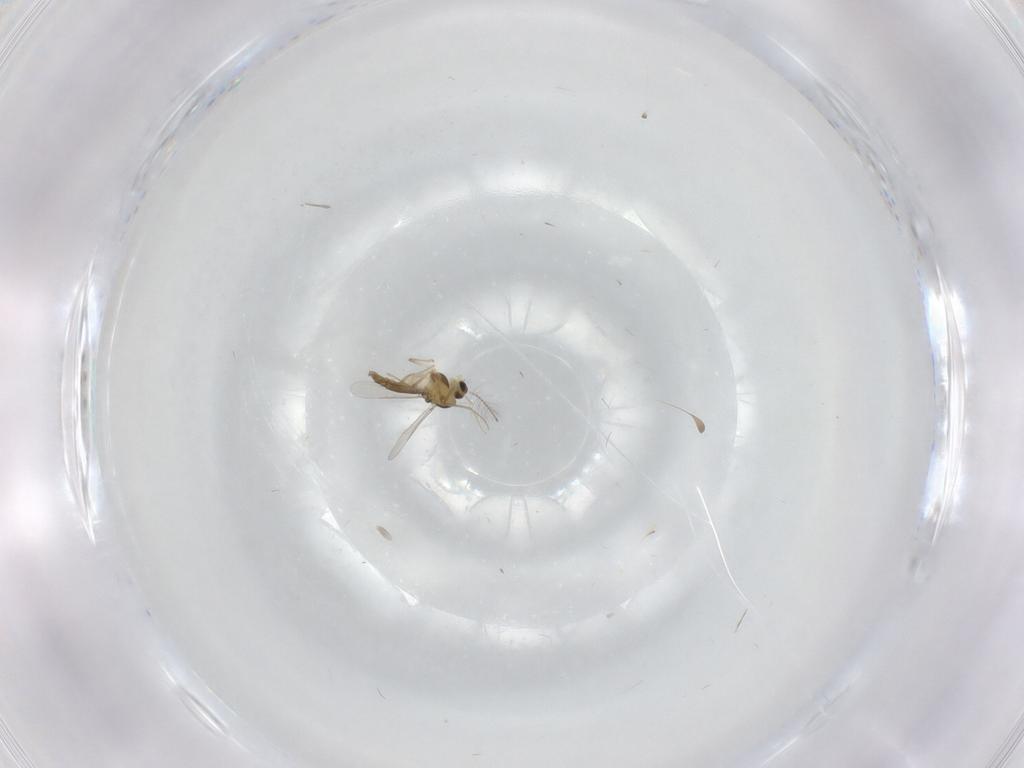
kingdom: Animalia
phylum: Arthropoda
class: Insecta
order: Diptera
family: Chironomidae
